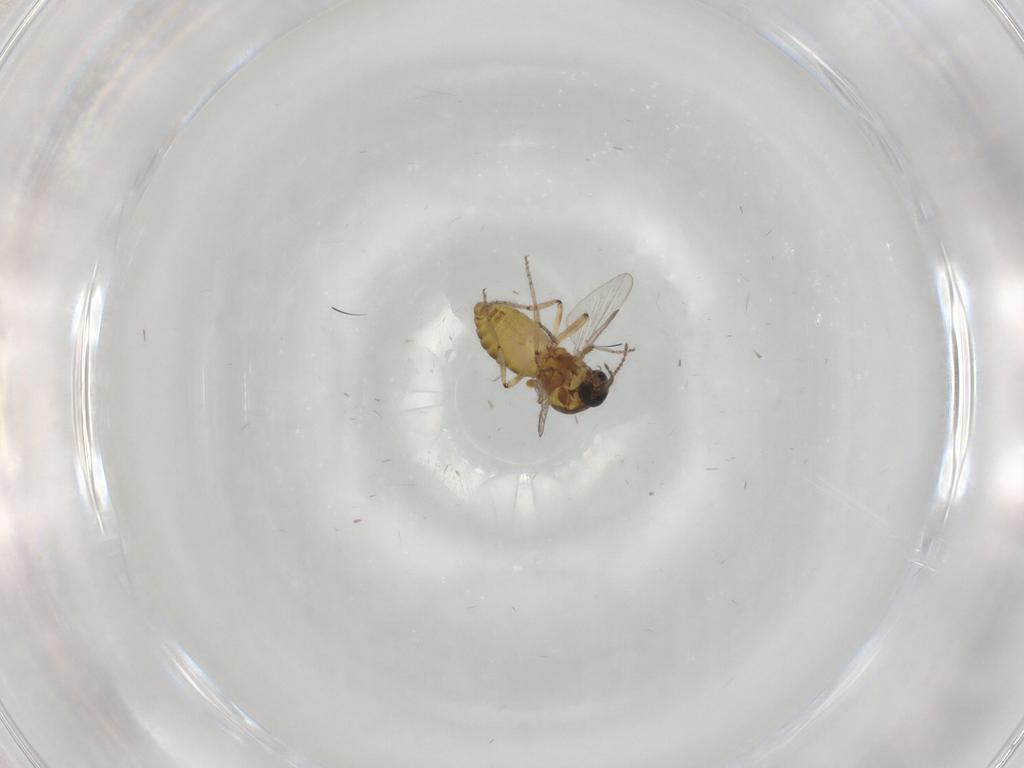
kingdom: Animalia
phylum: Arthropoda
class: Insecta
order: Diptera
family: Ceratopogonidae
